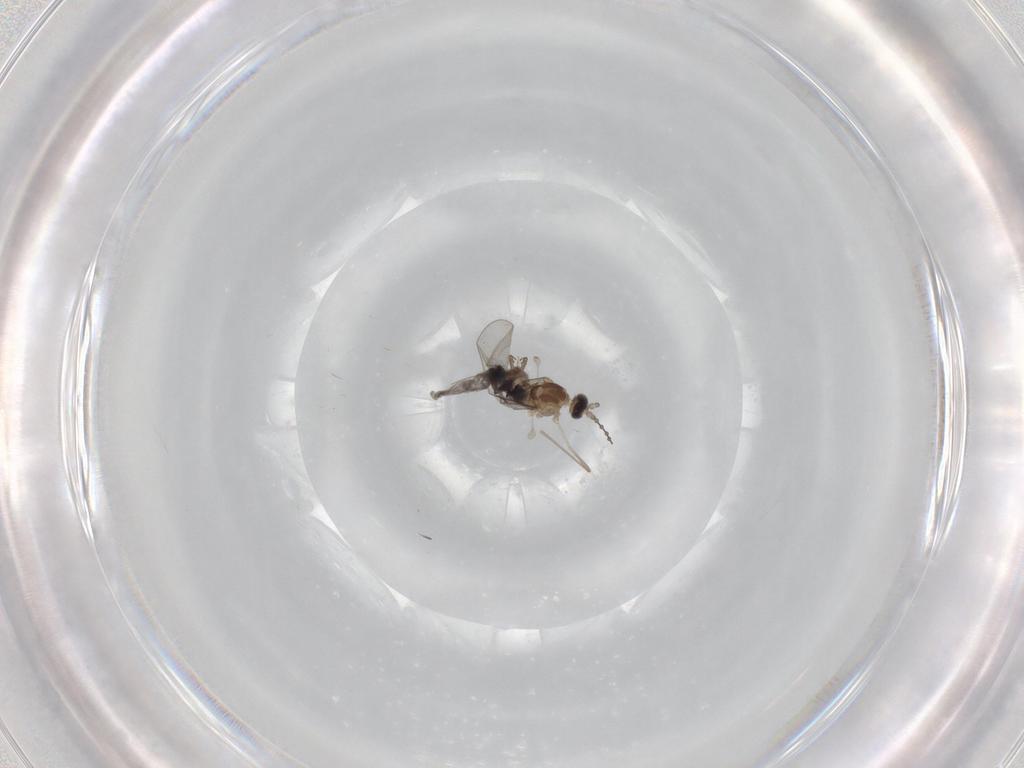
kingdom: Animalia
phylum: Arthropoda
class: Insecta
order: Diptera
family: Cecidomyiidae
